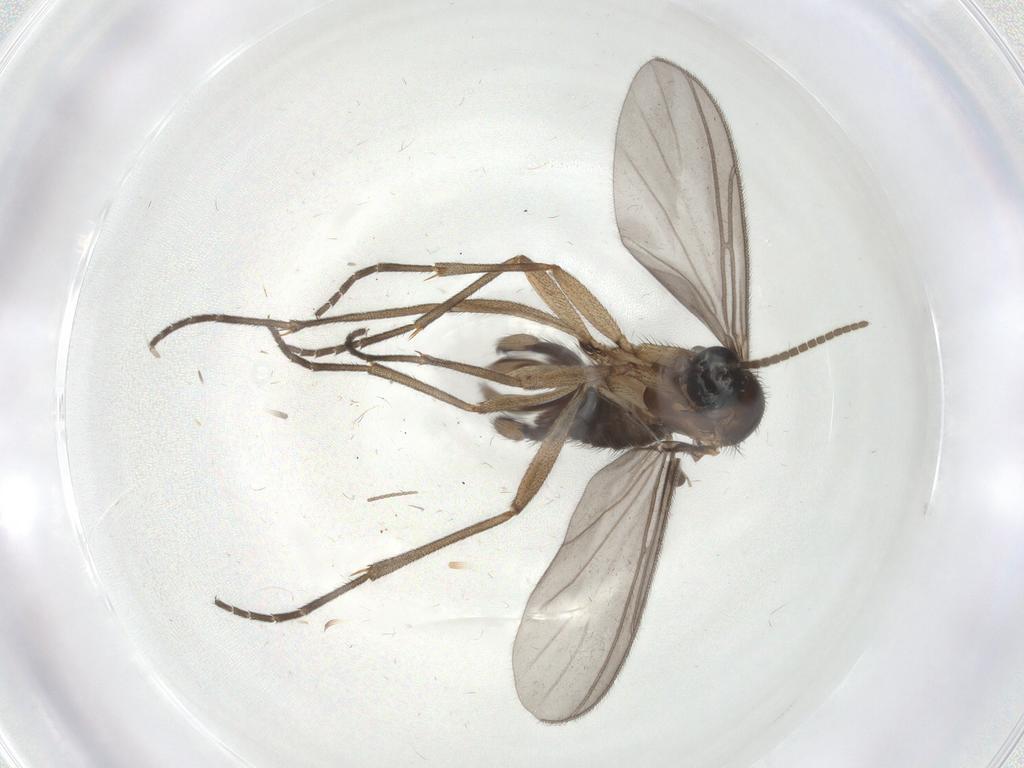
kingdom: Animalia
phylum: Arthropoda
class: Insecta
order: Diptera
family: Sciaridae
